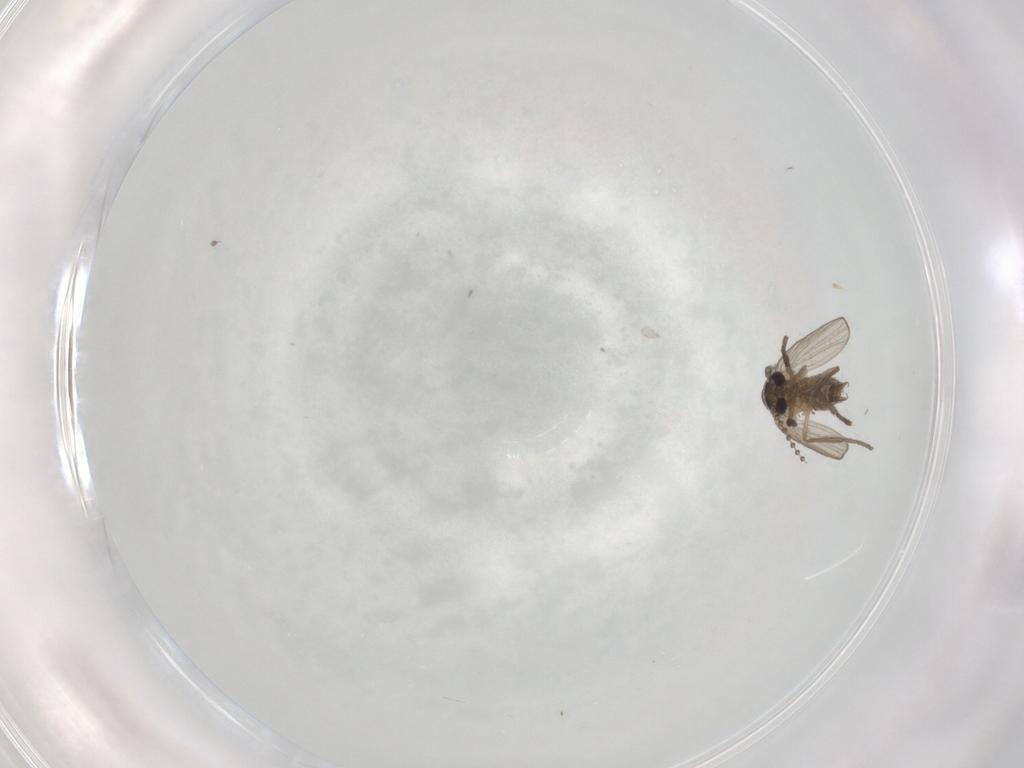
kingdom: Animalia
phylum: Arthropoda
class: Insecta
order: Diptera
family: Psychodidae
